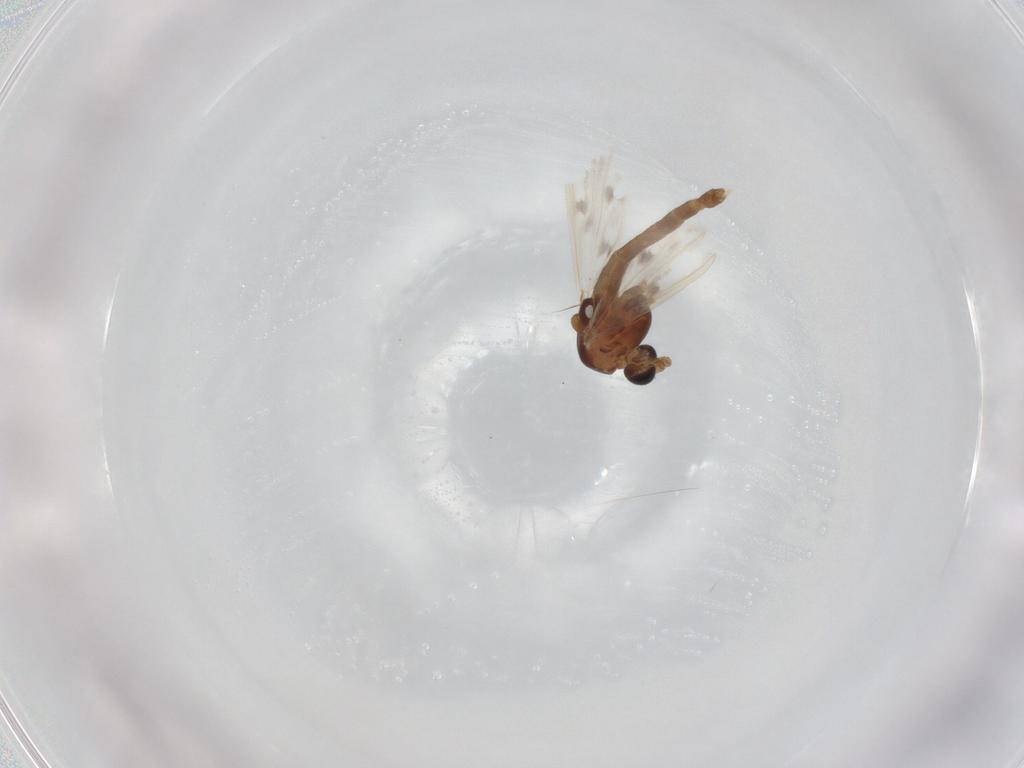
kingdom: Animalia
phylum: Arthropoda
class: Insecta
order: Diptera
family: Chironomidae
